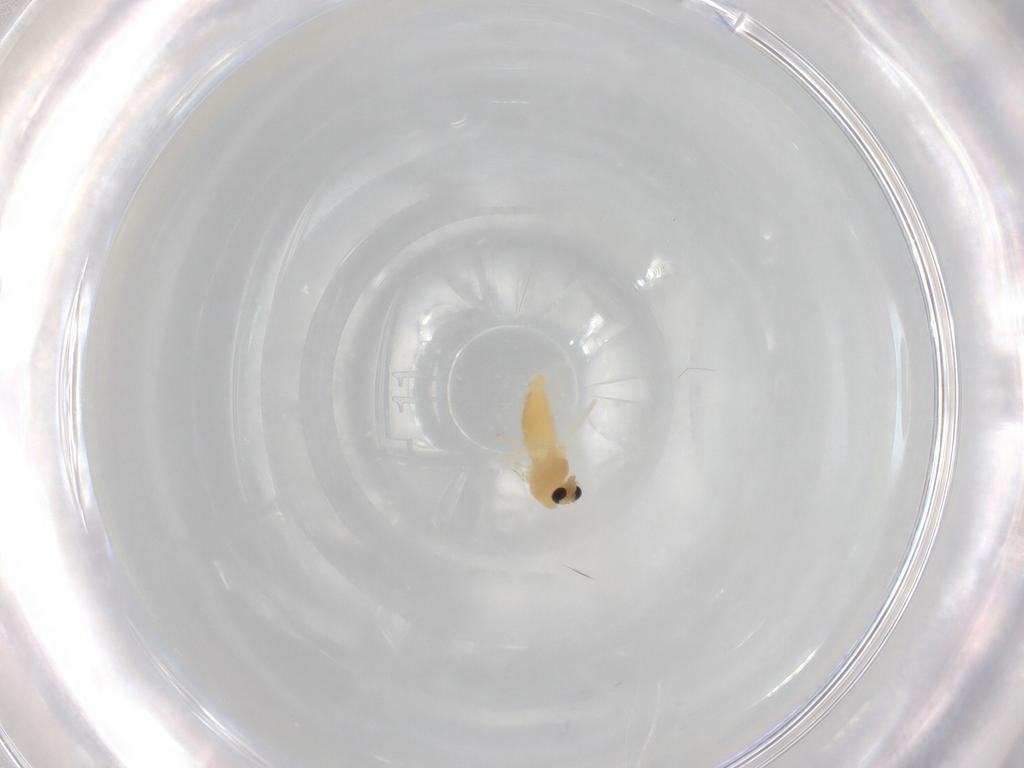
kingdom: Animalia
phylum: Arthropoda
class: Insecta
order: Diptera
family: Chironomidae
